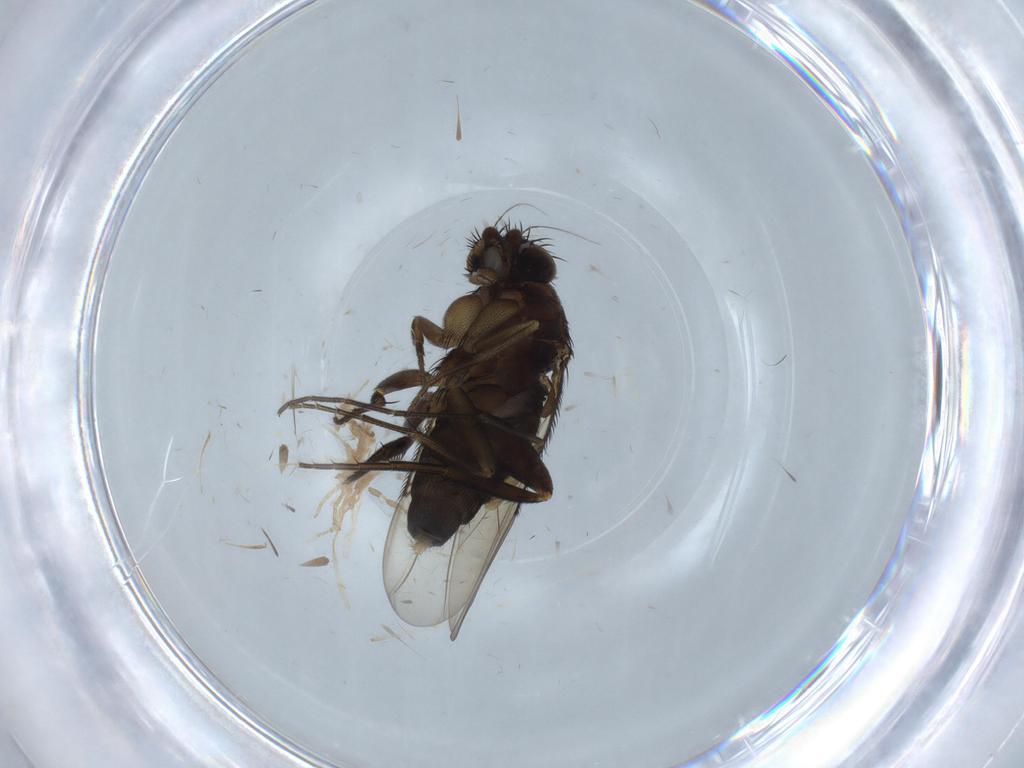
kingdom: Animalia
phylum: Arthropoda
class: Insecta
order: Diptera
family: Phoridae
